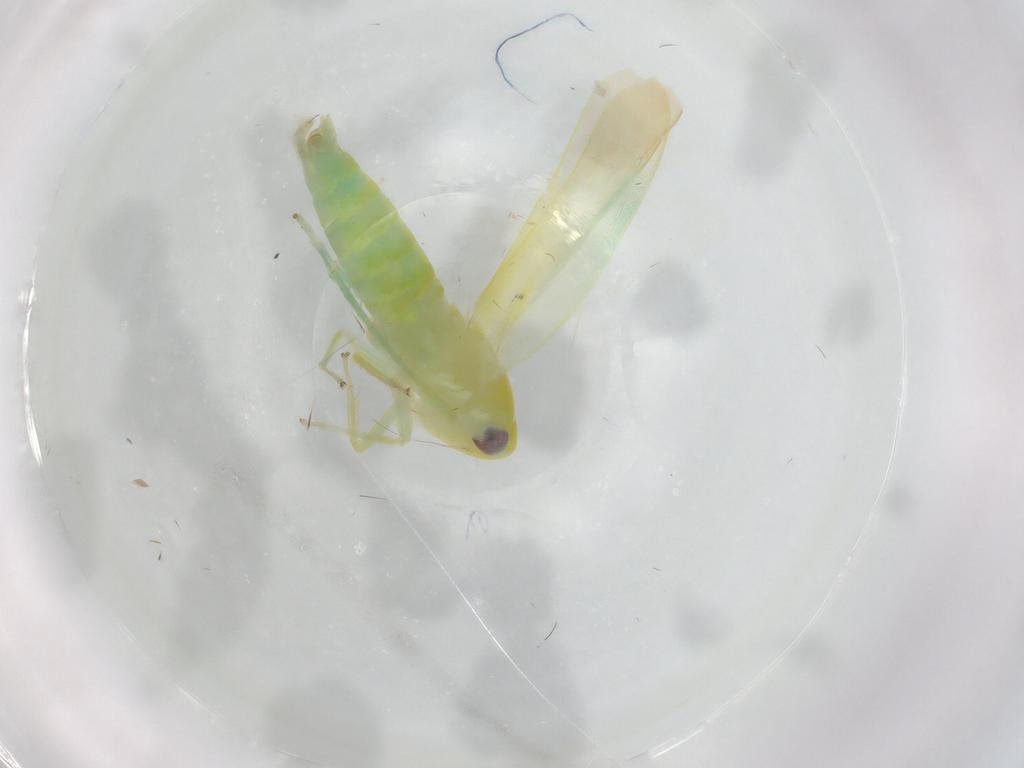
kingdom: Animalia
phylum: Arthropoda
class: Insecta
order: Hemiptera
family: Cicadellidae
